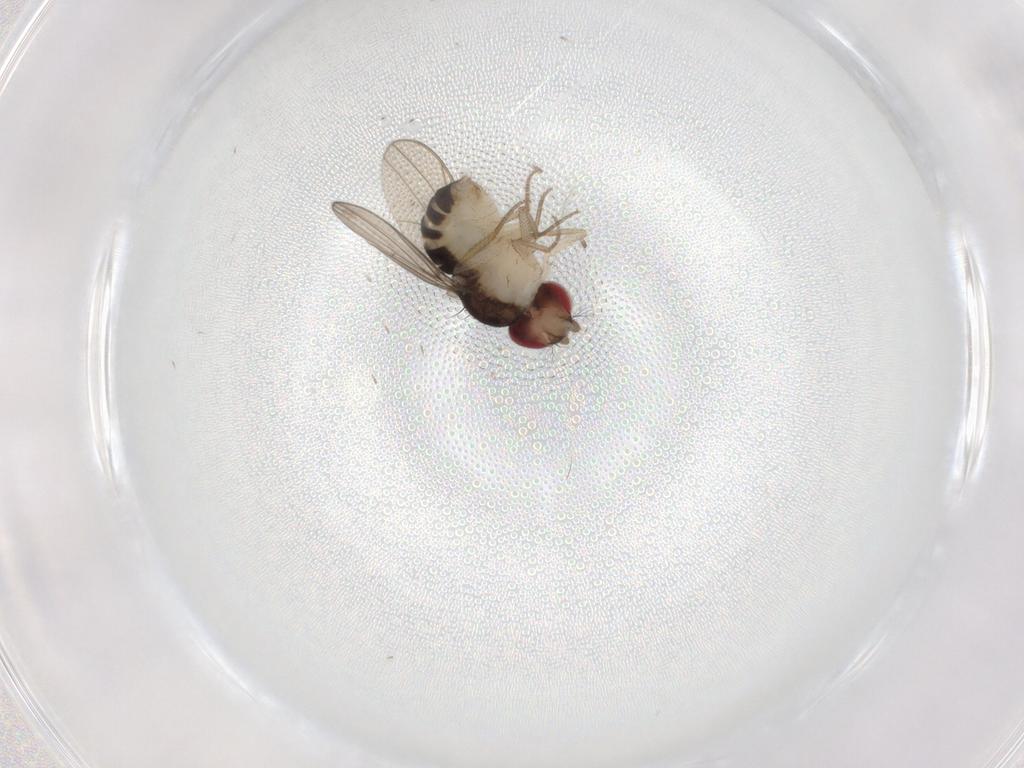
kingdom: Animalia
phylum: Arthropoda
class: Insecta
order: Diptera
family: Drosophilidae
